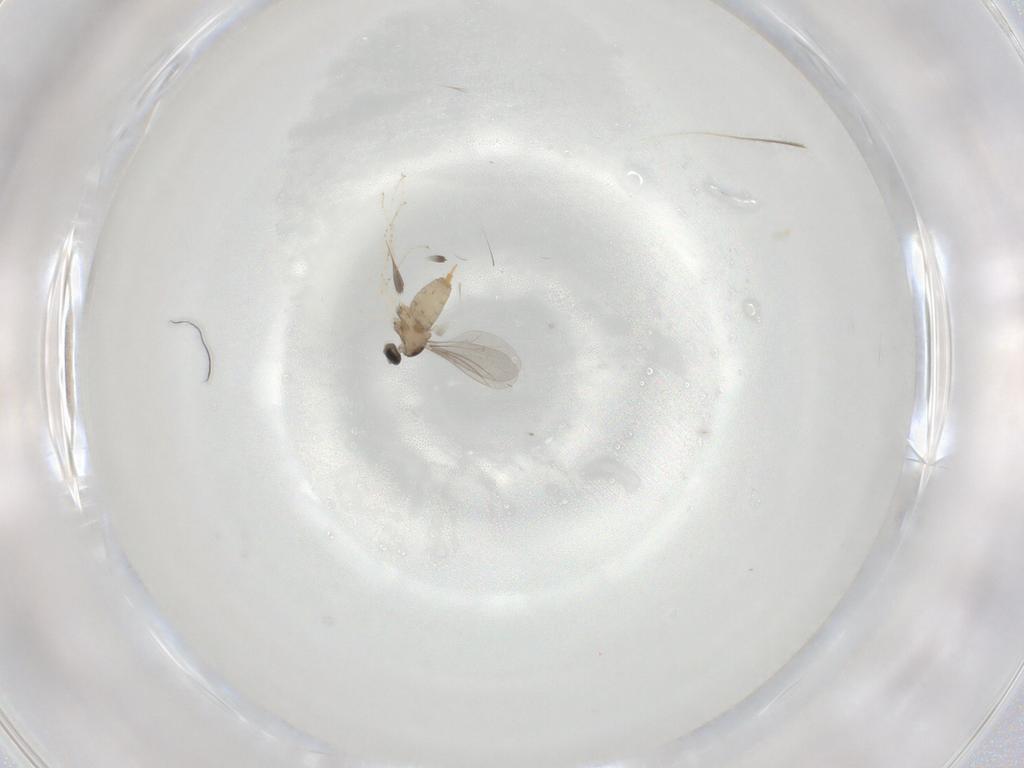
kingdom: Animalia
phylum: Arthropoda
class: Insecta
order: Diptera
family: Cecidomyiidae
